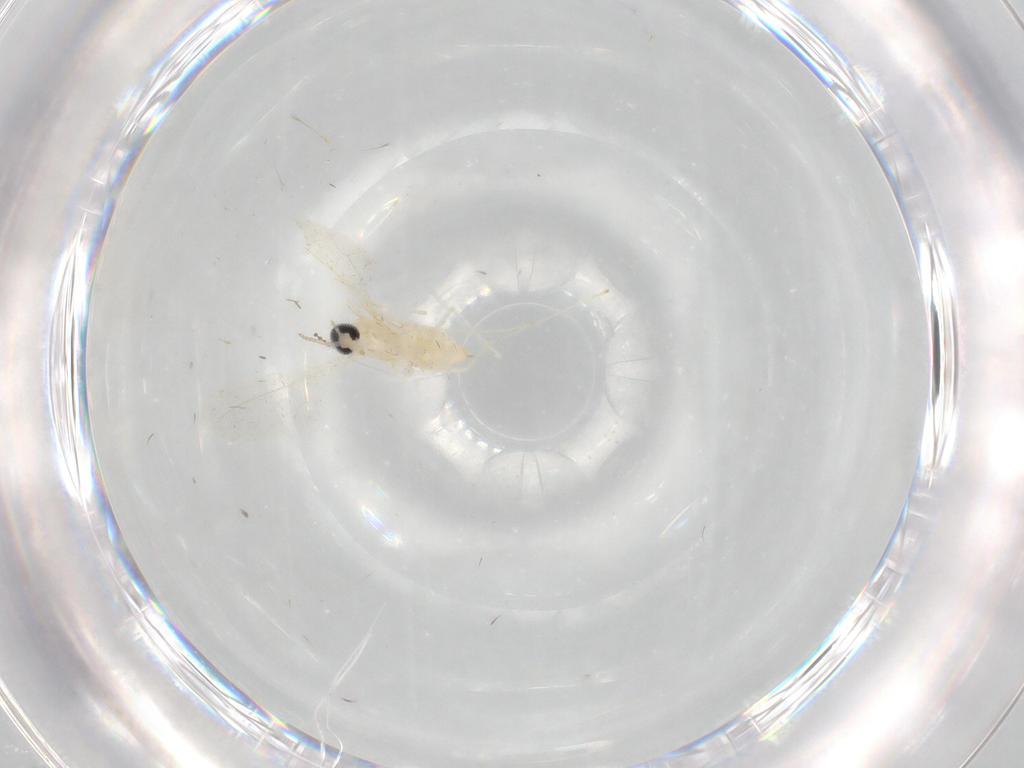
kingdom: Animalia
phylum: Arthropoda
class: Insecta
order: Diptera
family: Cecidomyiidae
